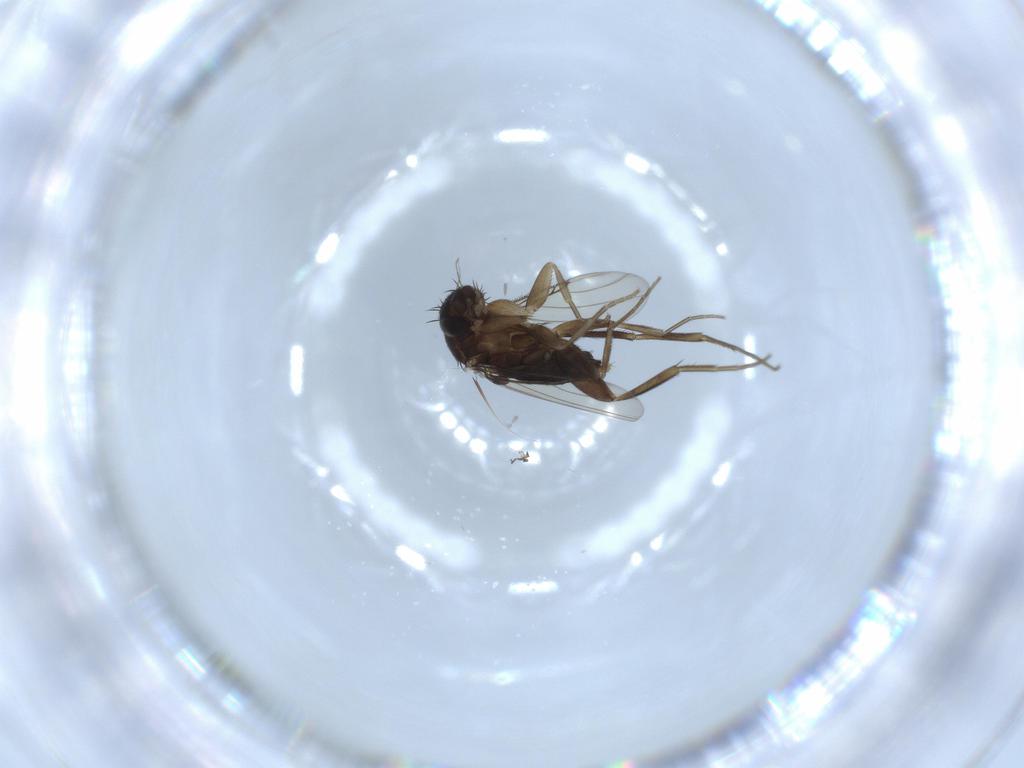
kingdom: Animalia
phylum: Arthropoda
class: Insecta
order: Diptera
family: Phoridae
